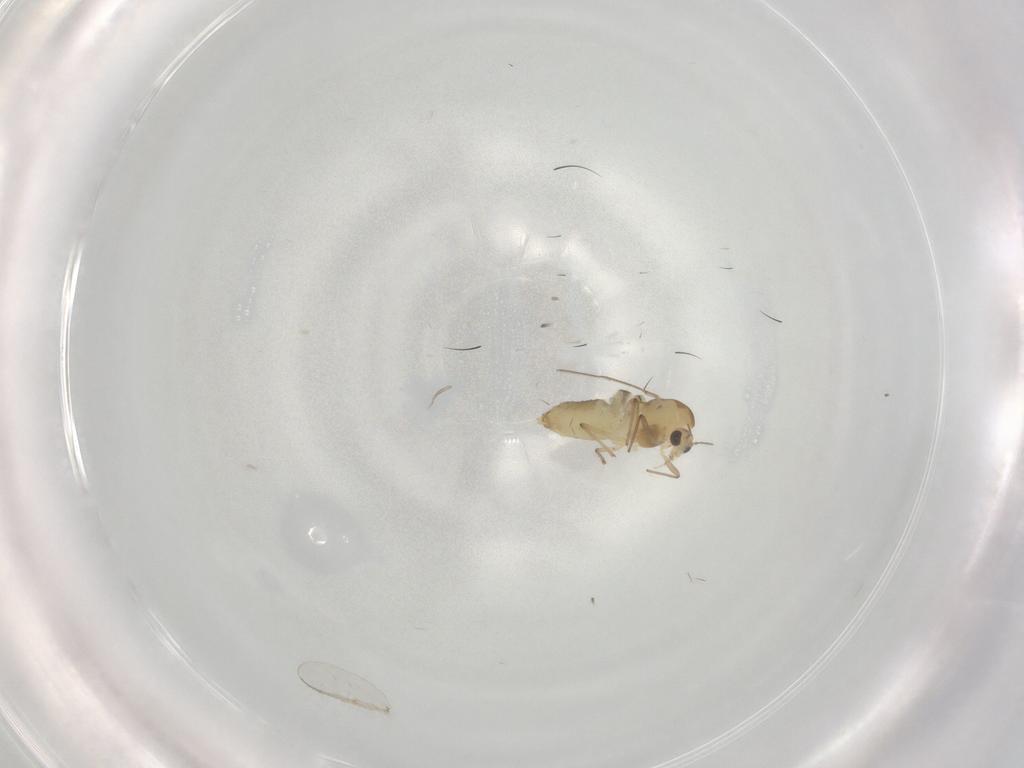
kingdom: Animalia
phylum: Arthropoda
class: Insecta
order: Diptera
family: Chironomidae
